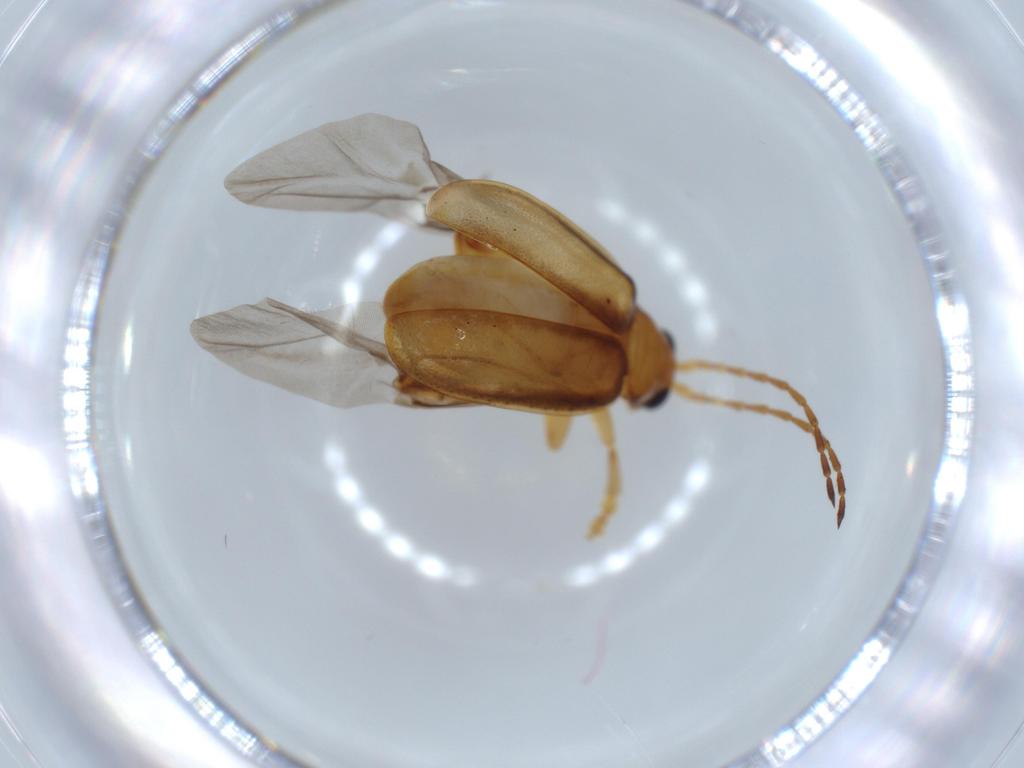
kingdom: Animalia
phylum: Arthropoda
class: Insecta
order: Coleoptera
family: Chrysomelidae
